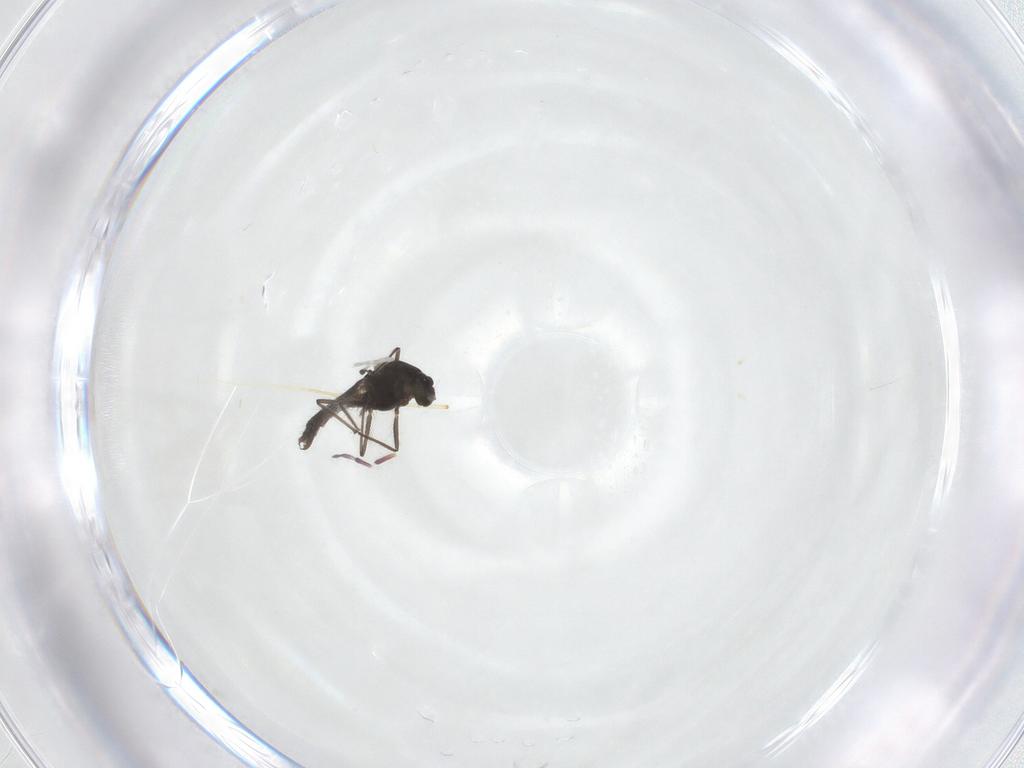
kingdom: Animalia
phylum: Arthropoda
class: Insecta
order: Diptera
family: Chironomidae
